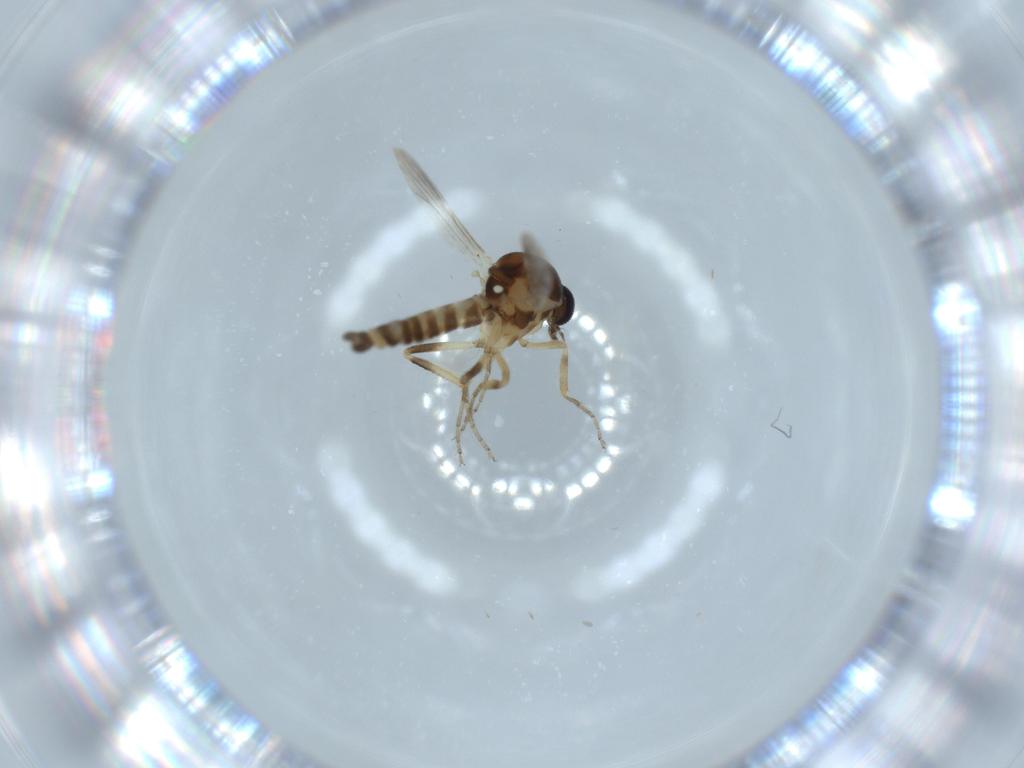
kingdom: Animalia
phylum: Arthropoda
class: Insecta
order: Diptera
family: Ceratopogonidae
